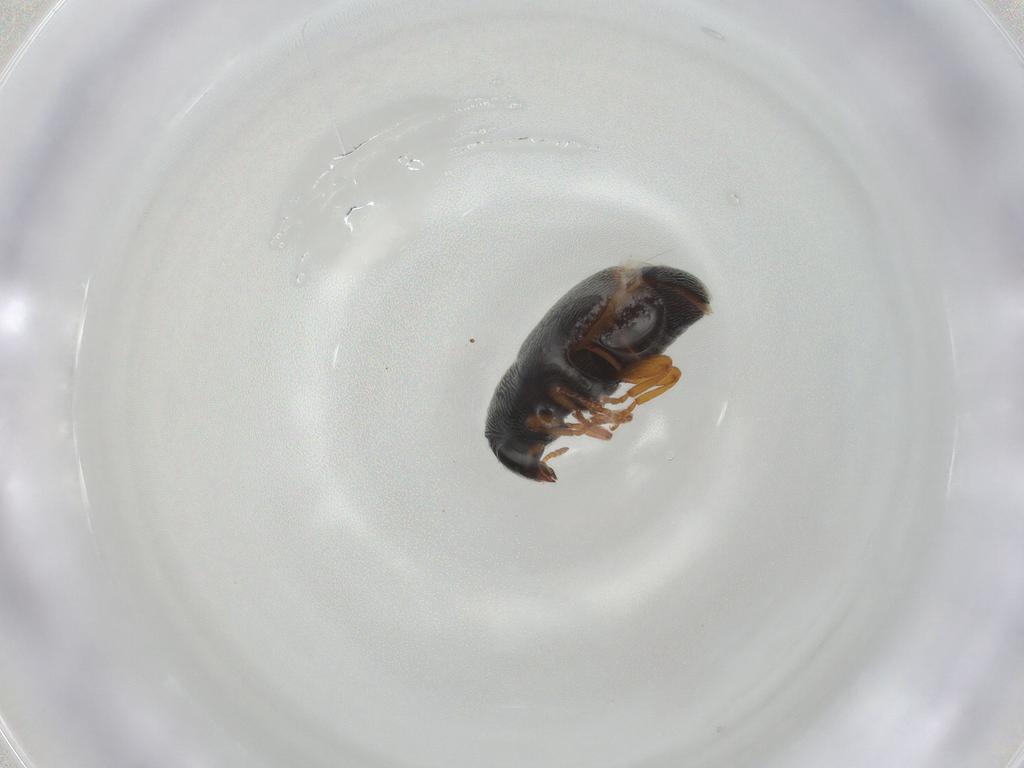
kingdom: Animalia
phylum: Arthropoda
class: Insecta
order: Coleoptera
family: Anthribidae
